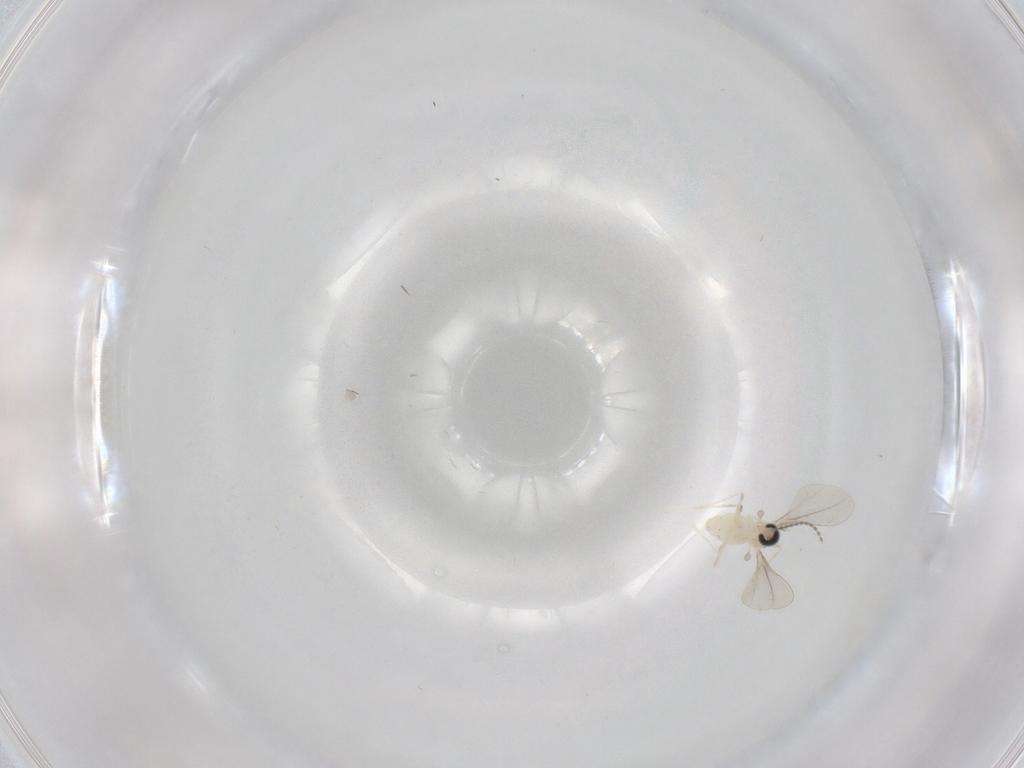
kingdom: Animalia
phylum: Arthropoda
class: Insecta
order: Diptera
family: Cecidomyiidae
